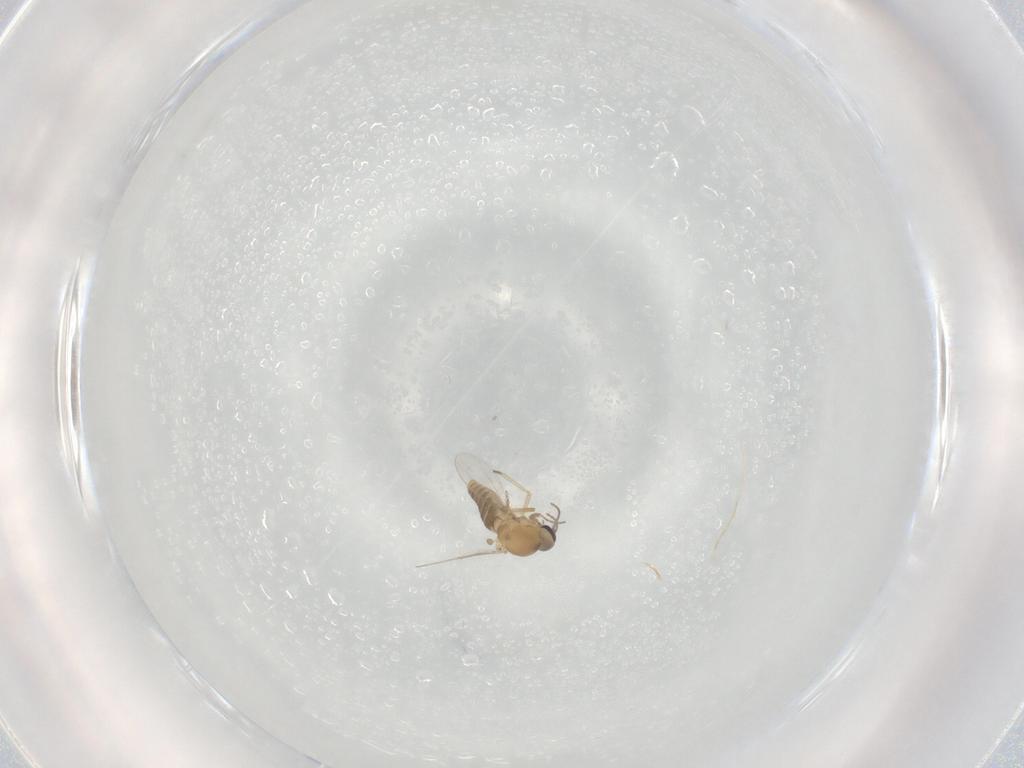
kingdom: Animalia
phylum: Arthropoda
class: Insecta
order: Diptera
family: Ceratopogonidae
